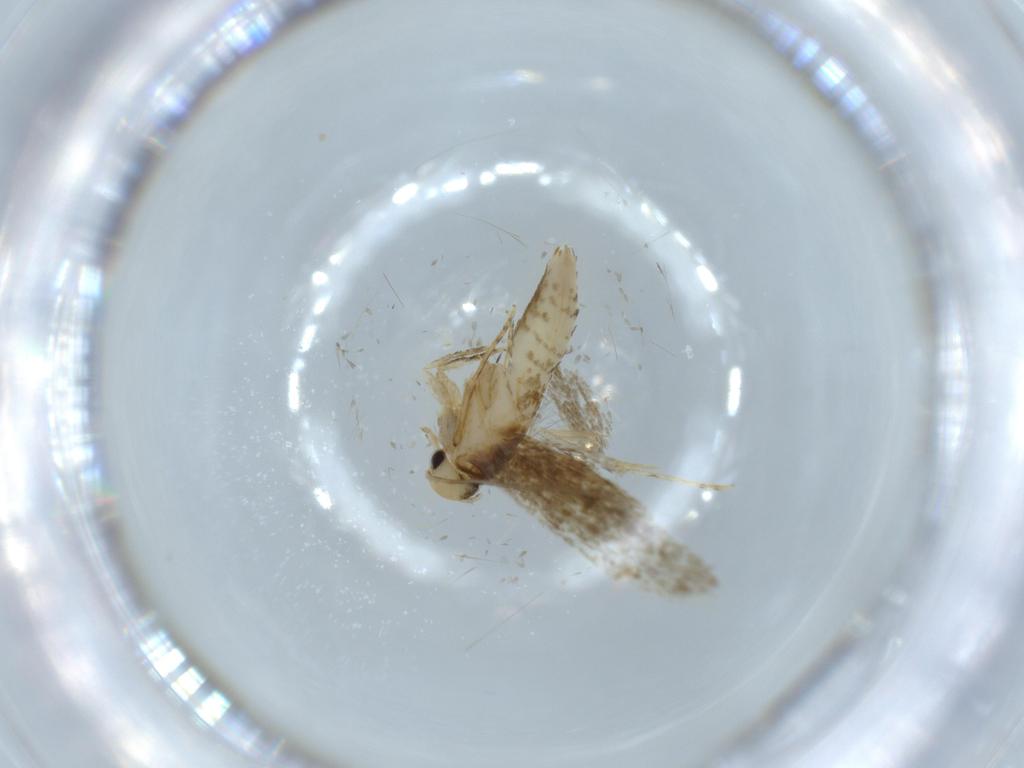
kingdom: Animalia
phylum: Arthropoda
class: Insecta
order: Lepidoptera
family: Tineidae
